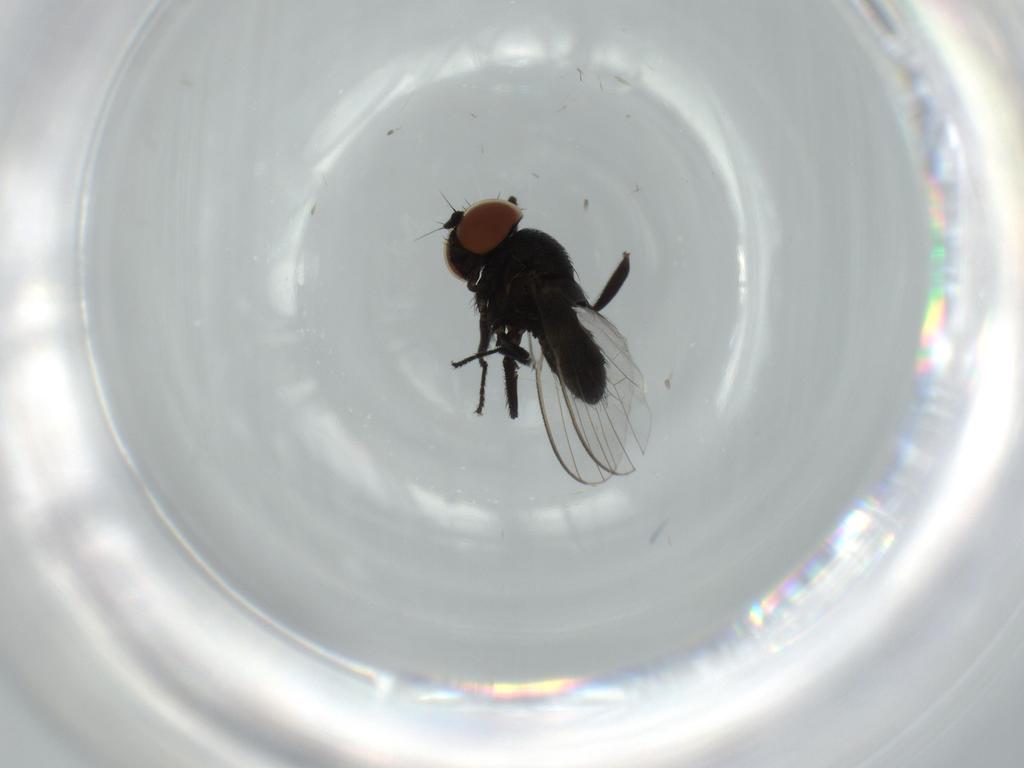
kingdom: Animalia
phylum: Arthropoda
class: Insecta
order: Diptera
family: Milichiidae
